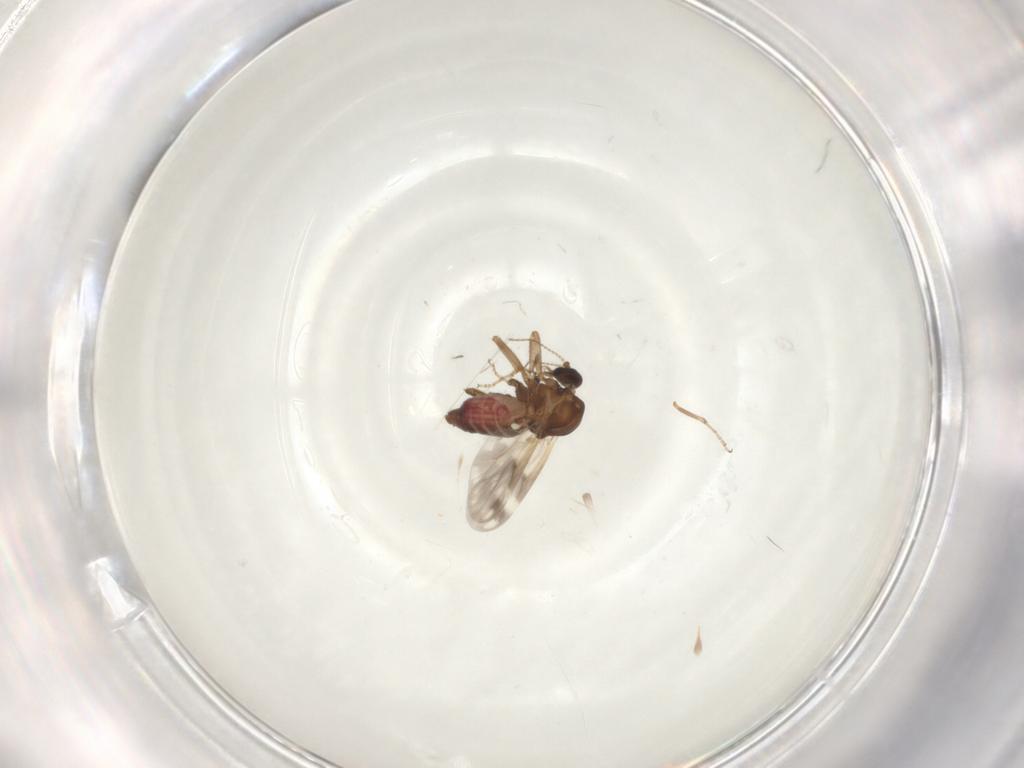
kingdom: Animalia
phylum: Arthropoda
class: Insecta
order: Diptera
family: Ceratopogonidae
